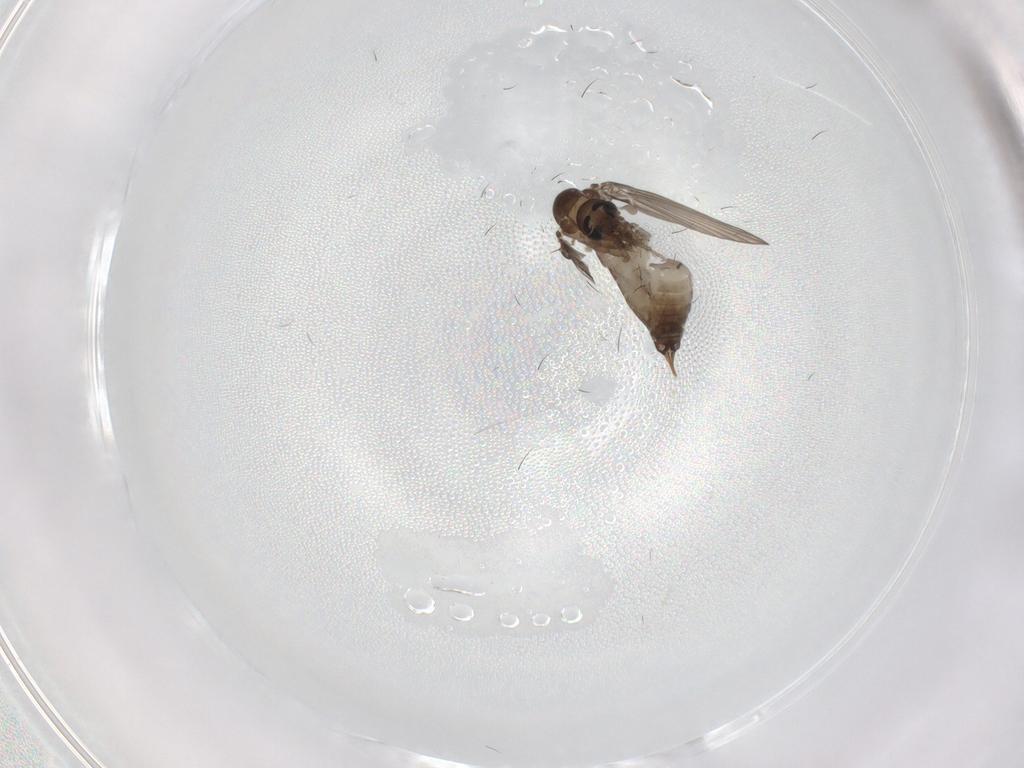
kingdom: Animalia
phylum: Arthropoda
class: Insecta
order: Diptera
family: Psychodidae
